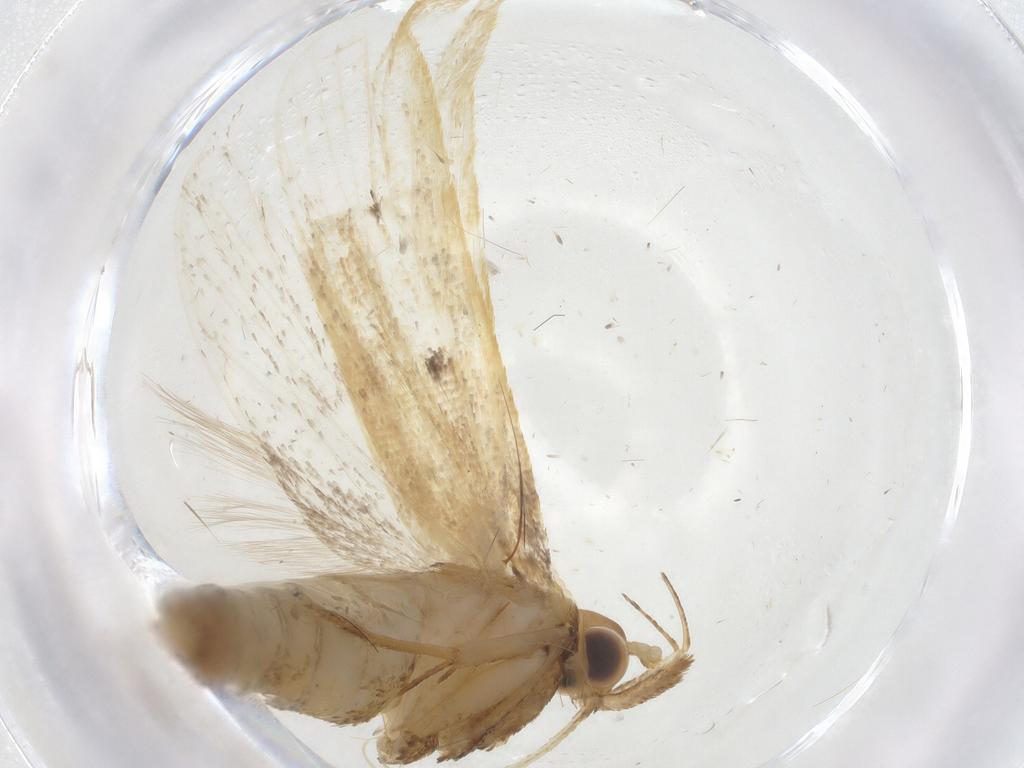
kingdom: Animalia
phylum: Arthropoda
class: Insecta
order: Lepidoptera
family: Lecithoceridae
